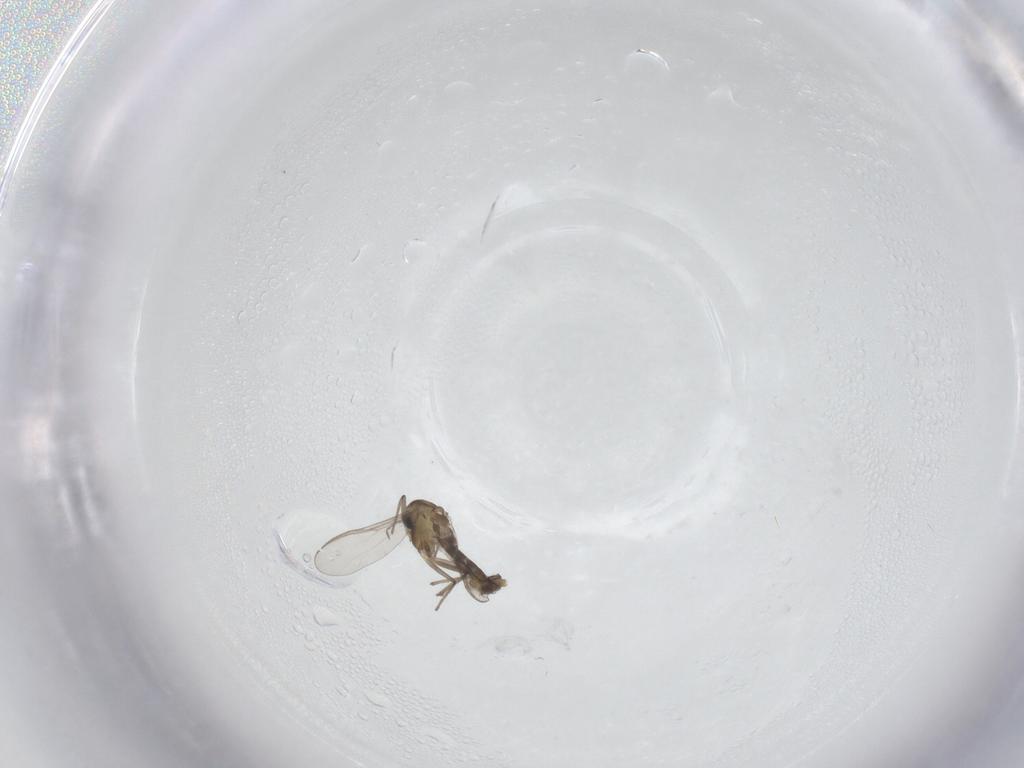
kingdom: Animalia
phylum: Arthropoda
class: Insecta
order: Diptera
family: Chironomidae
